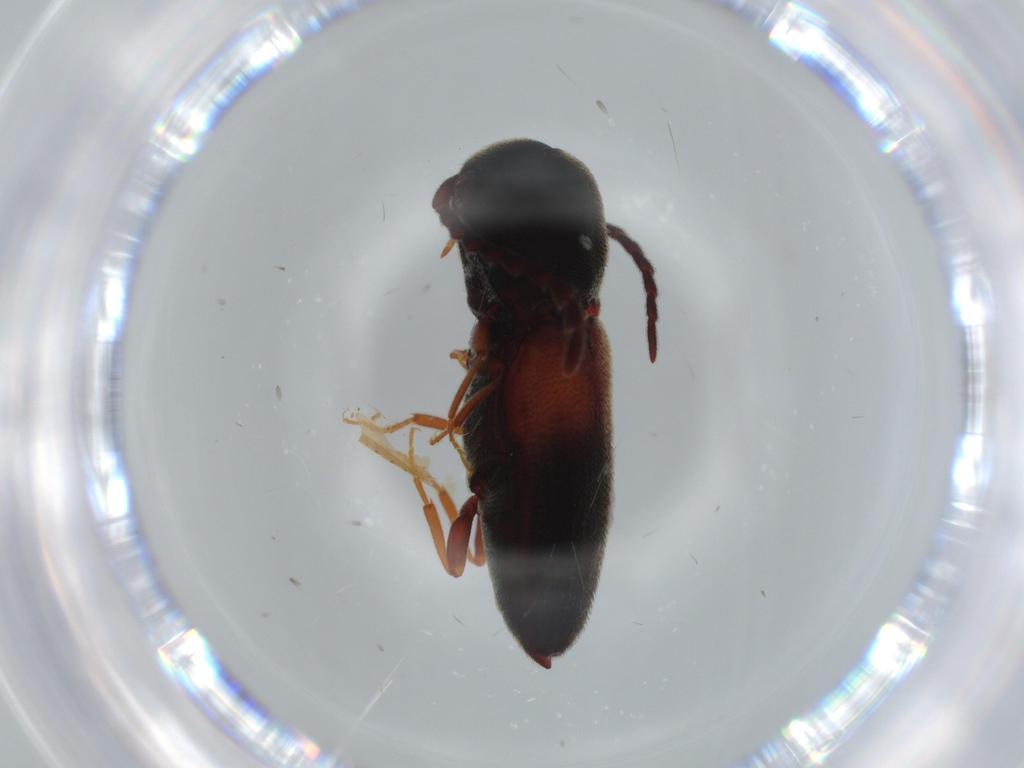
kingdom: Animalia
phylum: Arthropoda
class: Insecta
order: Coleoptera
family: Eucnemidae
